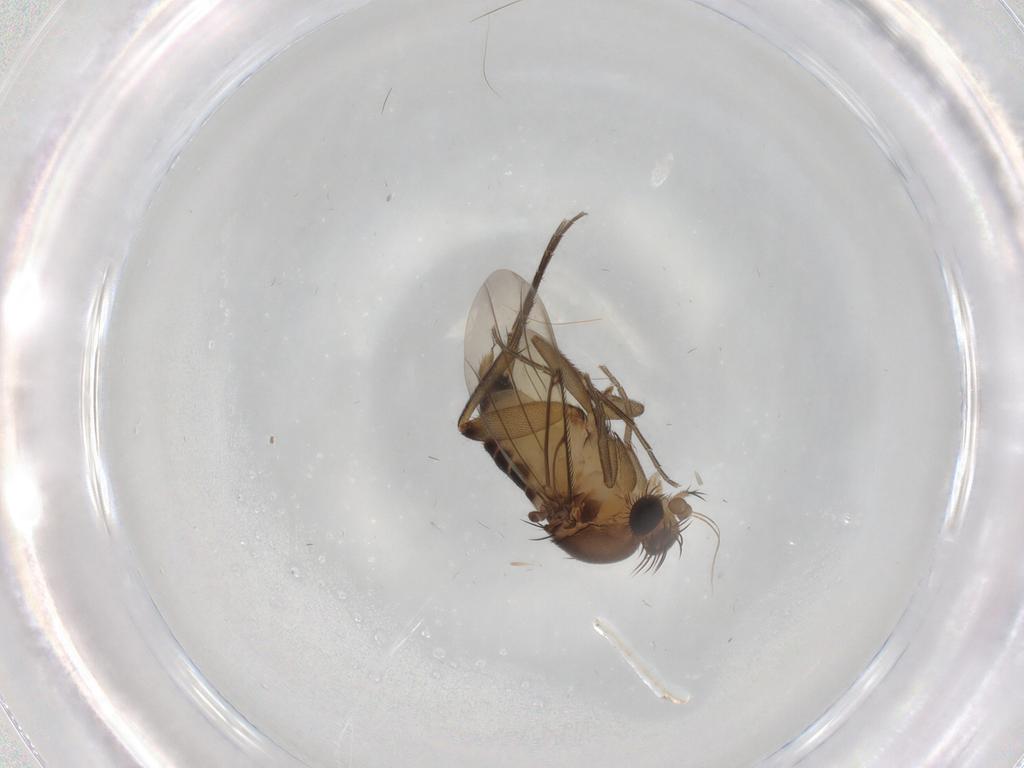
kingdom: Animalia
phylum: Arthropoda
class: Insecta
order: Diptera
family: Phoridae
